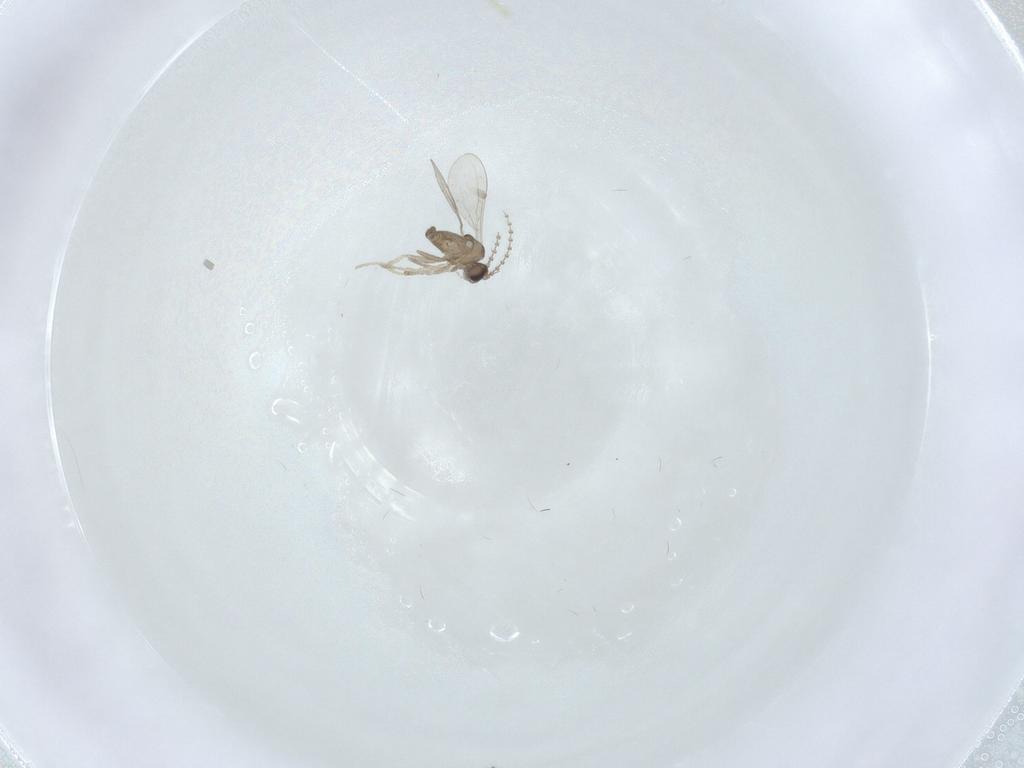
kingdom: Animalia
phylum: Arthropoda
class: Insecta
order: Diptera
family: Cecidomyiidae
